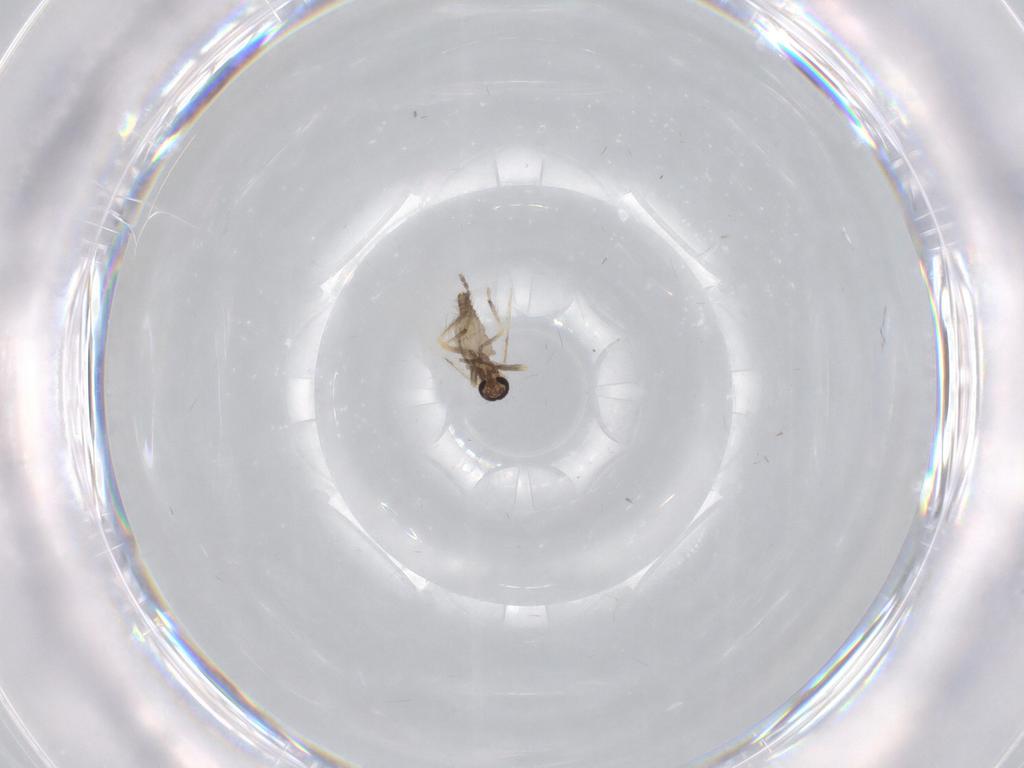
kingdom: Animalia
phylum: Arthropoda
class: Insecta
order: Diptera
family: Ceratopogonidae
